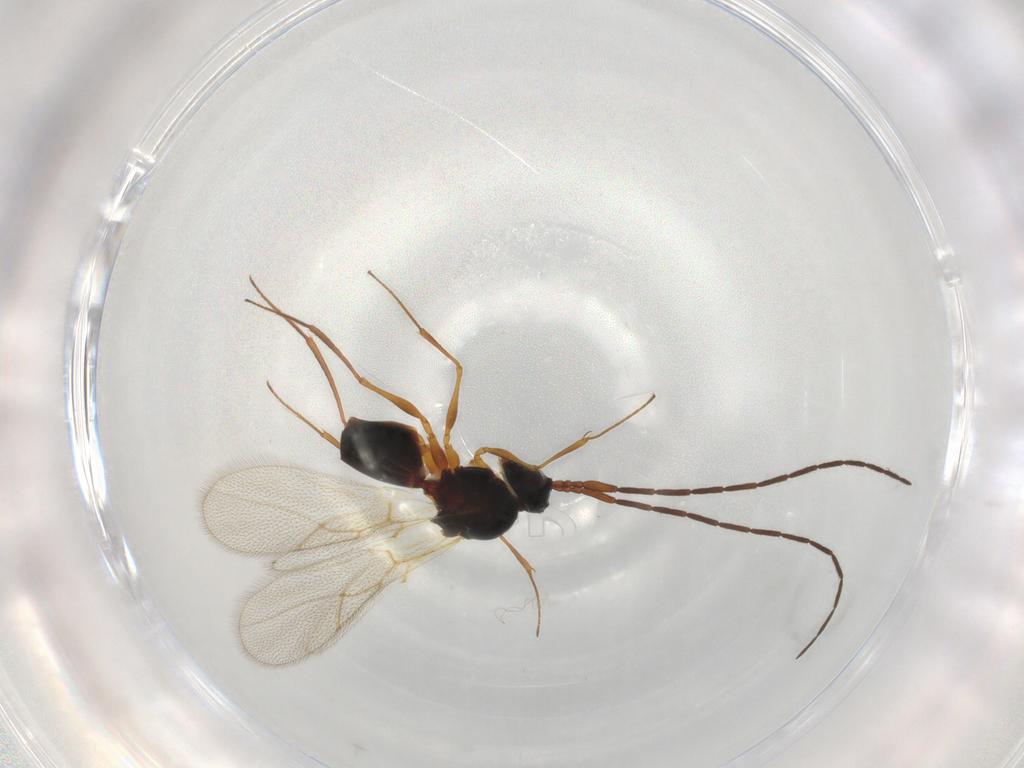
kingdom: Animalia
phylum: Arthropoda
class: Insecta
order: Hymenoptera
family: Figitidae
